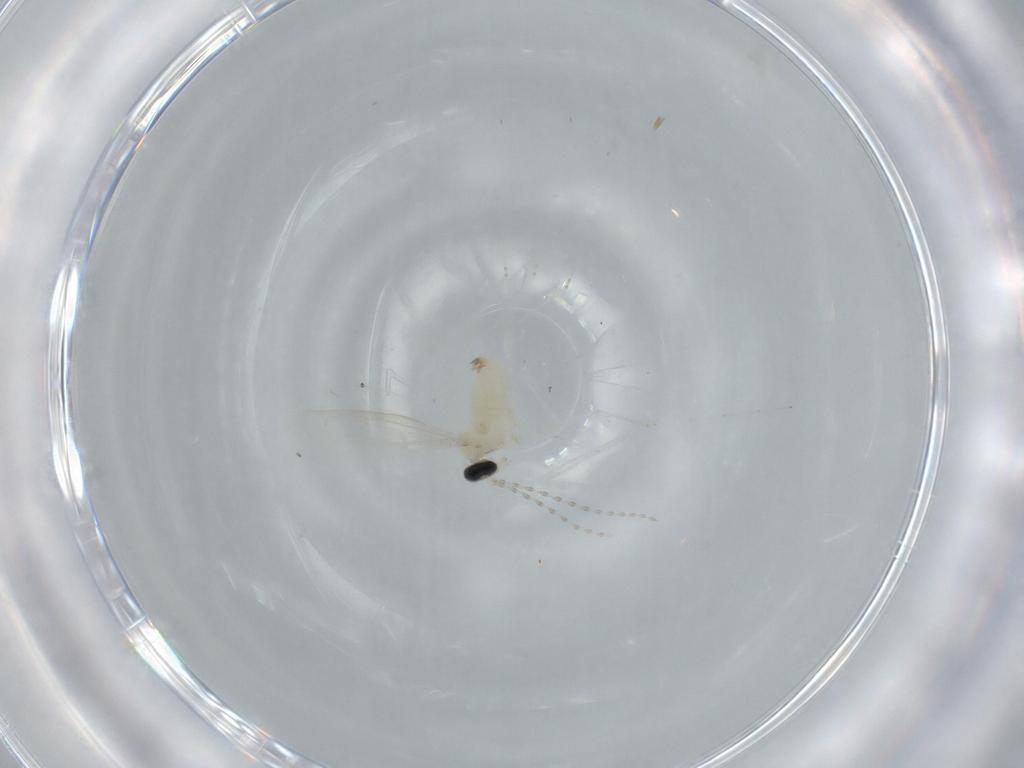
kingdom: Animalia
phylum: Arthropoda
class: Insecta
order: Diptera
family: Cecidomyiidae
